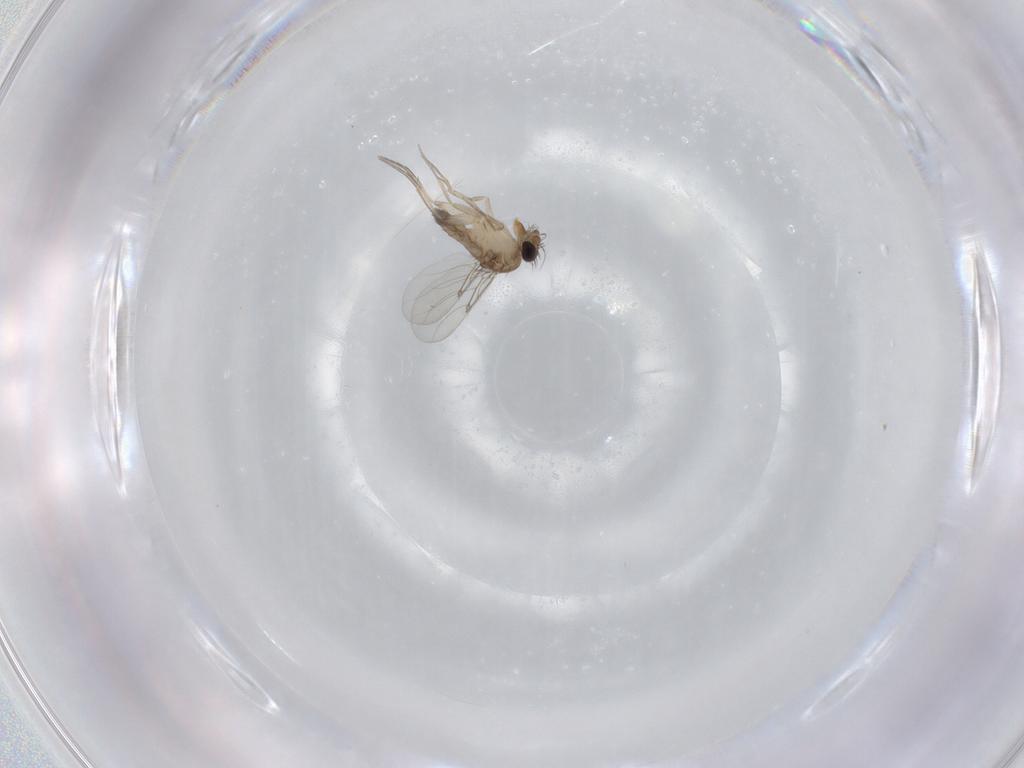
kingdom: Animalia
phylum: Arthropoda
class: Insecta
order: Diptera
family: Phoridae
